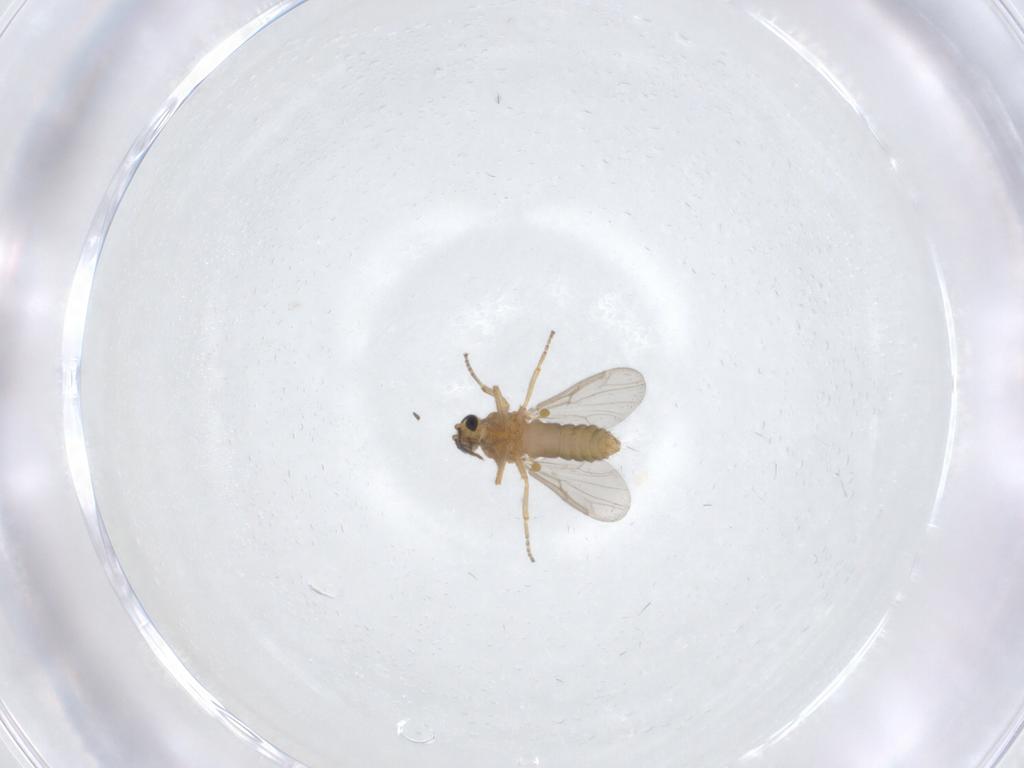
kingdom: Animalia
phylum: Arthropoda
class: Insecta
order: Diptera
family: Ceratopogonidae
